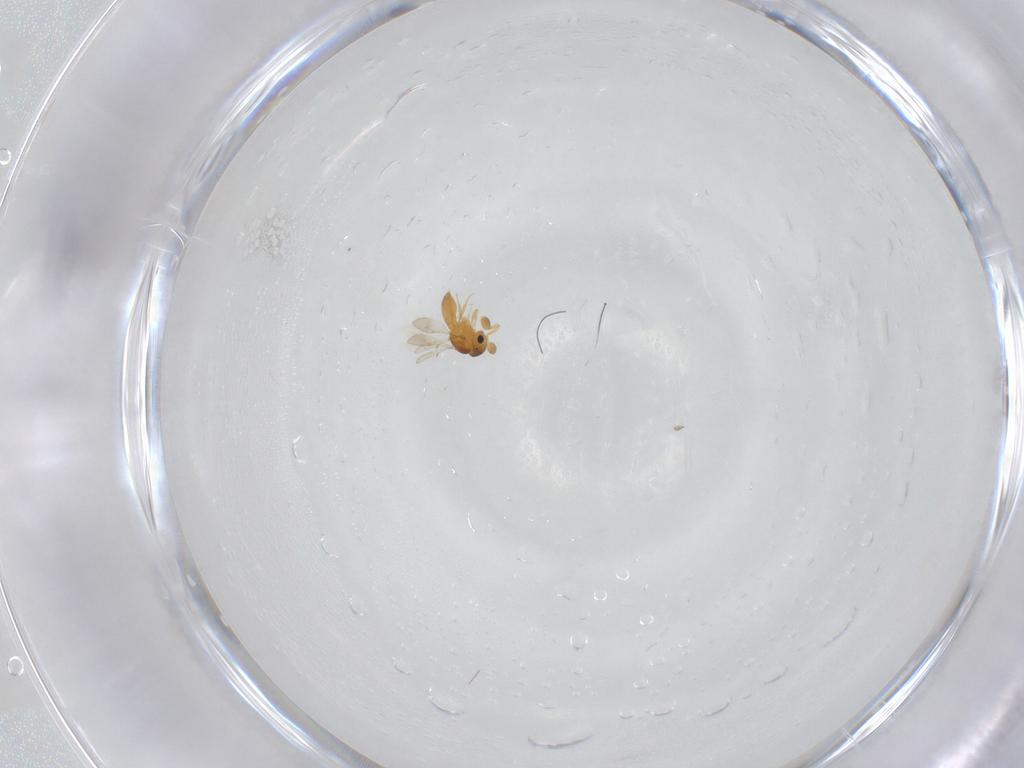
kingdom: Animalia
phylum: Arthropoda
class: Insecta
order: Hymenoptera
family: Scelionidae
